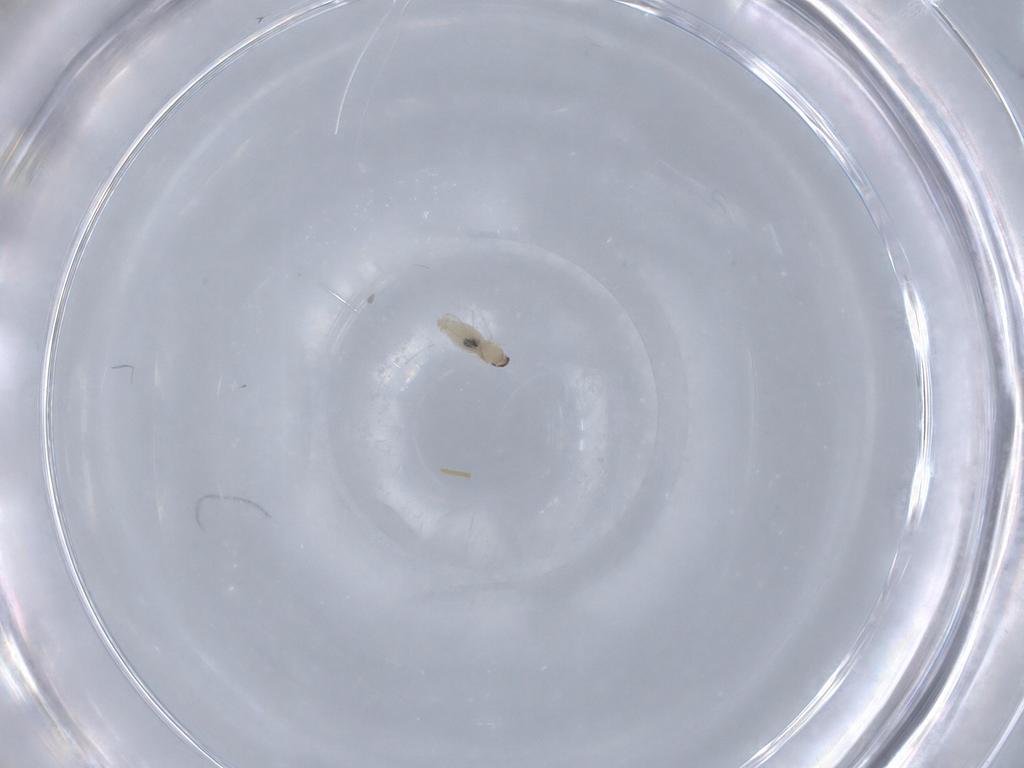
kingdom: Animalia
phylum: Arthropoda
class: Insecta
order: Diptera
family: Cecidomyiidae
